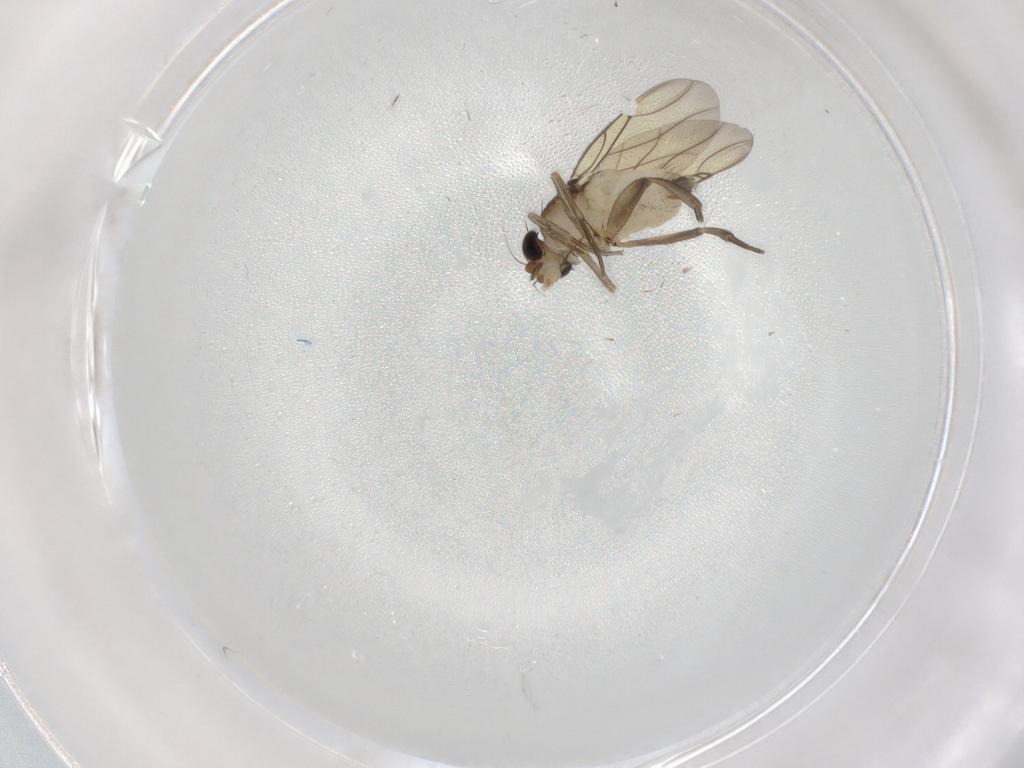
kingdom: Animalia
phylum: Arthropoda
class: Insecta
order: Diptera
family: Chironomidae
